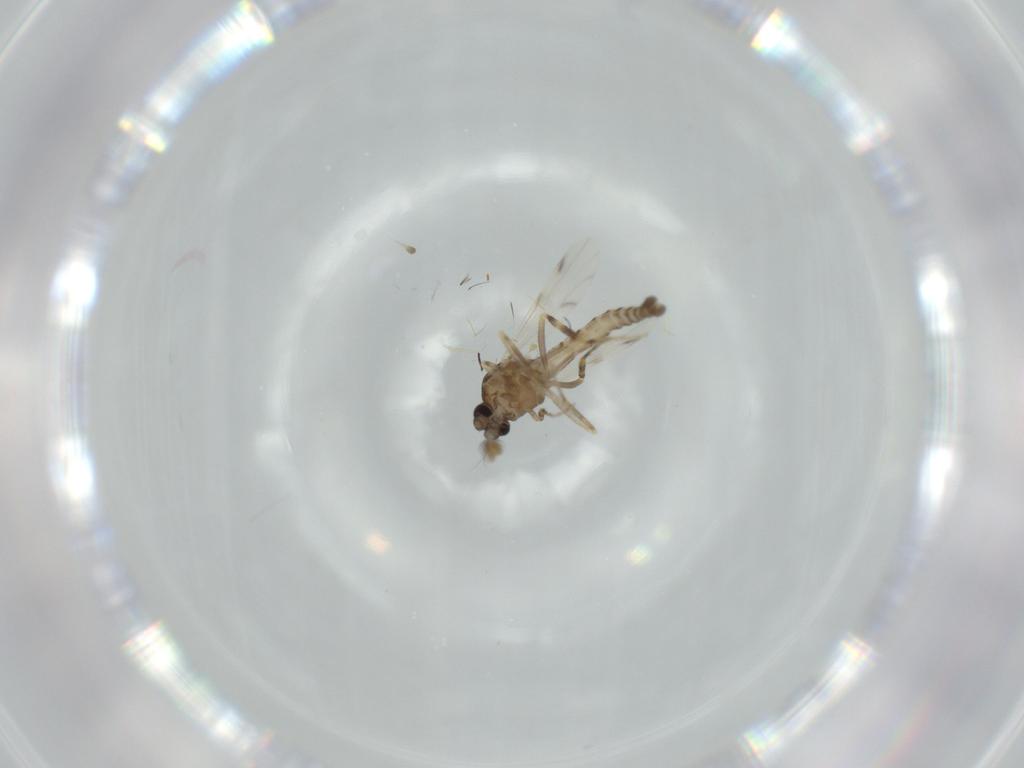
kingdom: Animalia
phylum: Arthropoda
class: Insecta
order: Diptera
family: Ceratopogonidae
